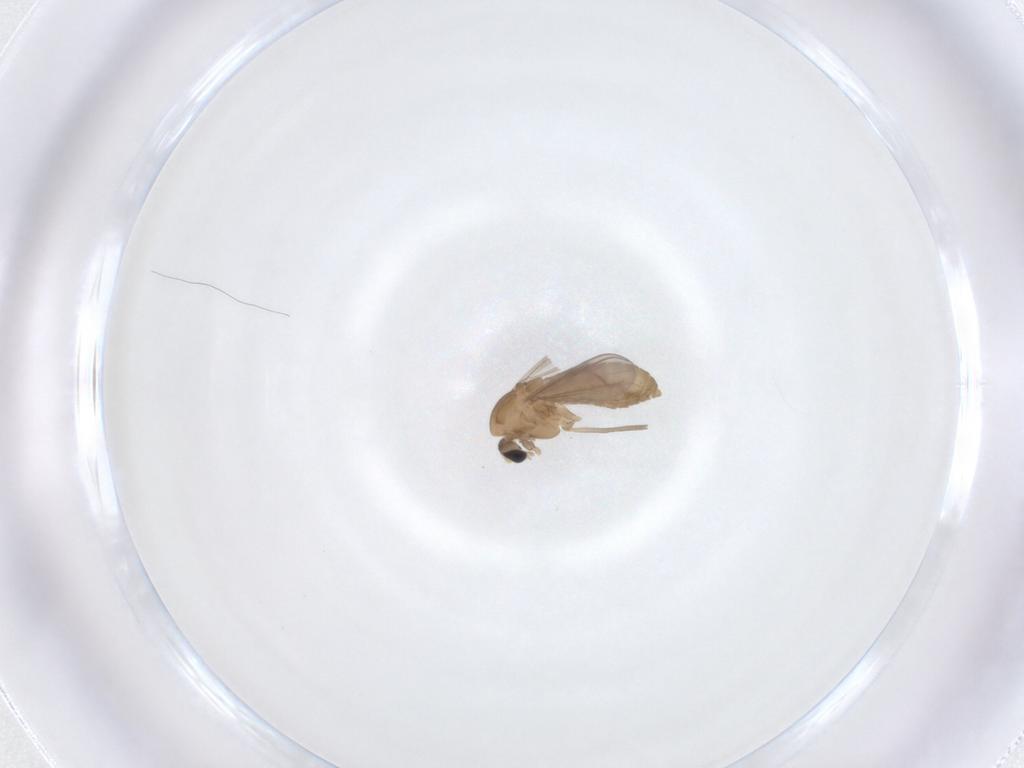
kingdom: Animalia
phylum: Arthropoda
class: Insecta
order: Diptera
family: Chironomidae
